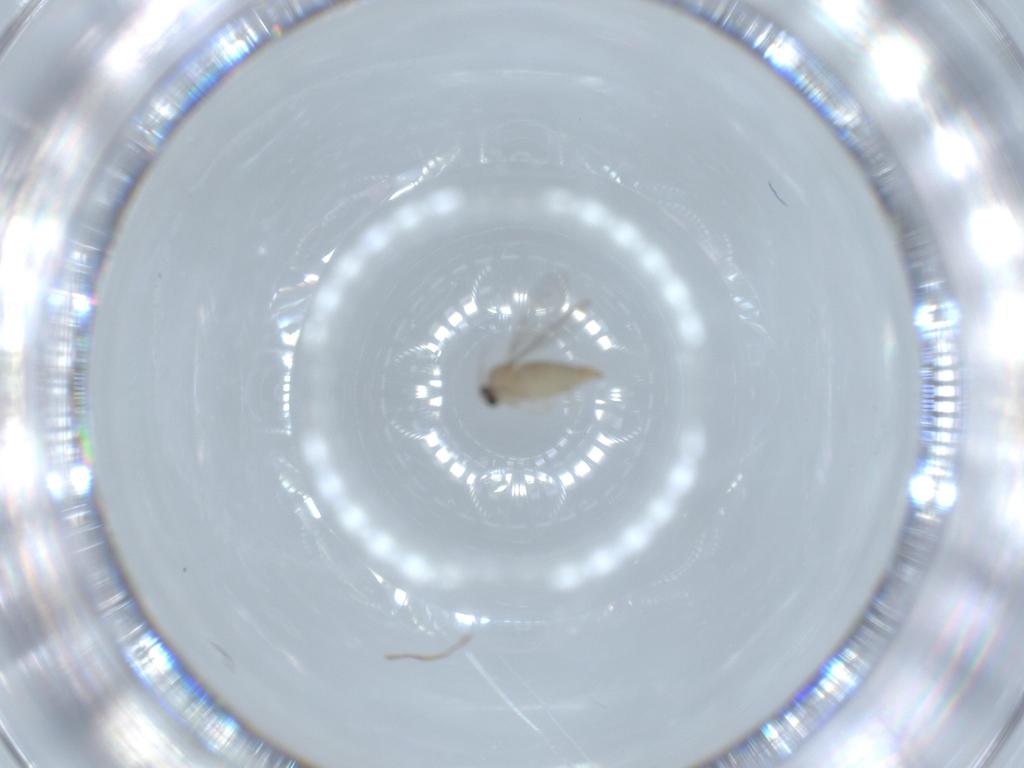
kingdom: Animalia
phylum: Arthropoda
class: Insecta
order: Diptera
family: Cecidomyiidae
